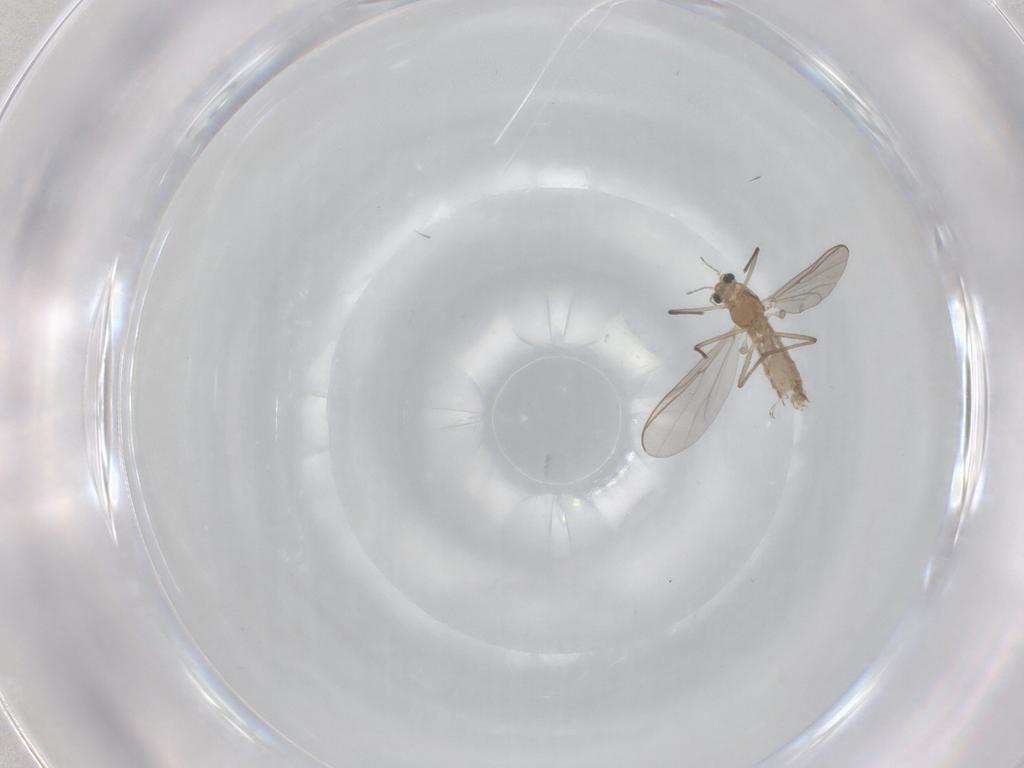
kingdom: Animalia
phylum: Arthropoda
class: Insecta
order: Diptera
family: Chironomidae
